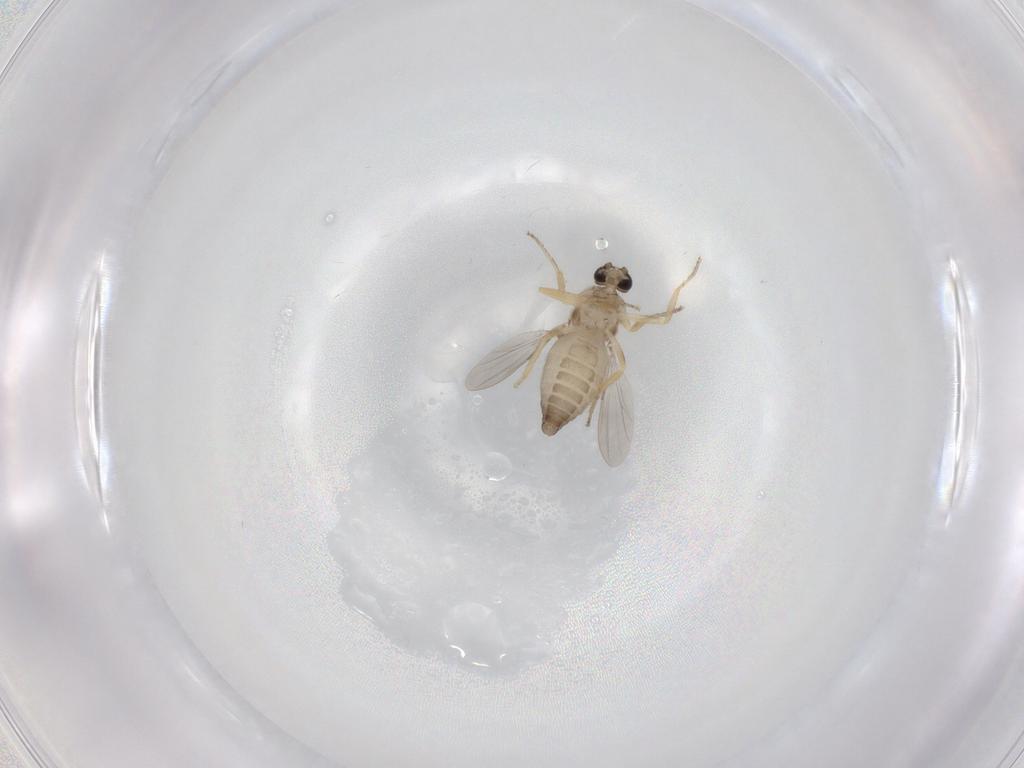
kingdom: Animalia
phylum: Arthropoda
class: Insecta
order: Diptera
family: Ceratopogonidae
